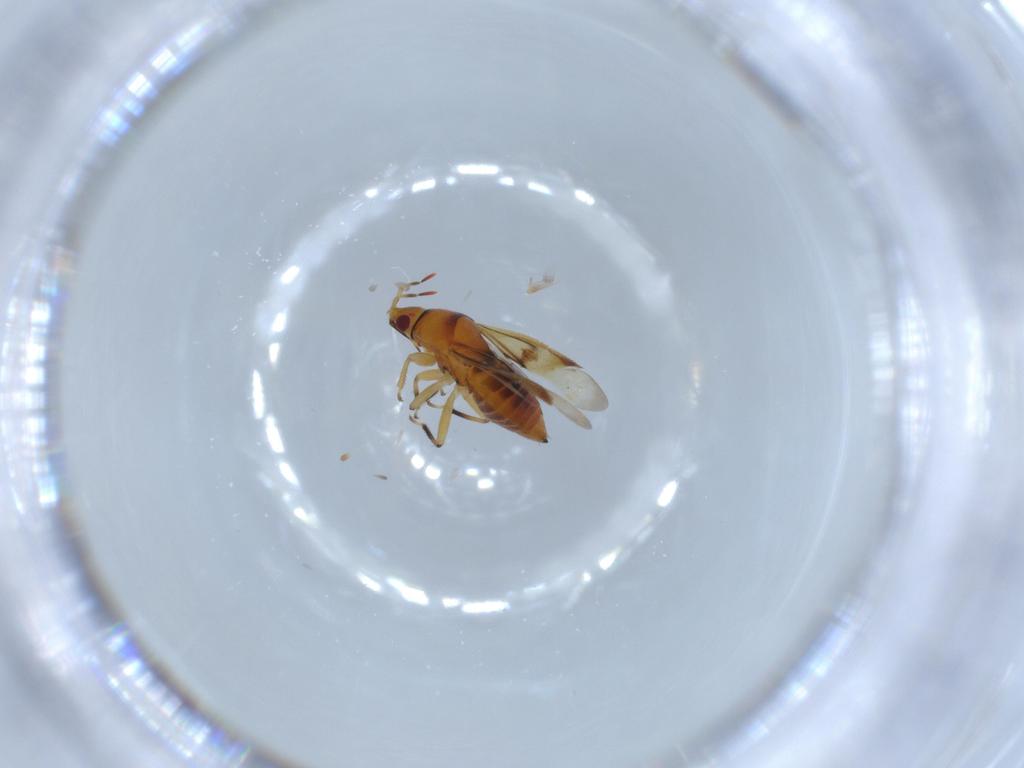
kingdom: Animalia
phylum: Arthropoda
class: Insecta
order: Hemiptera
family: Anthocoridae
